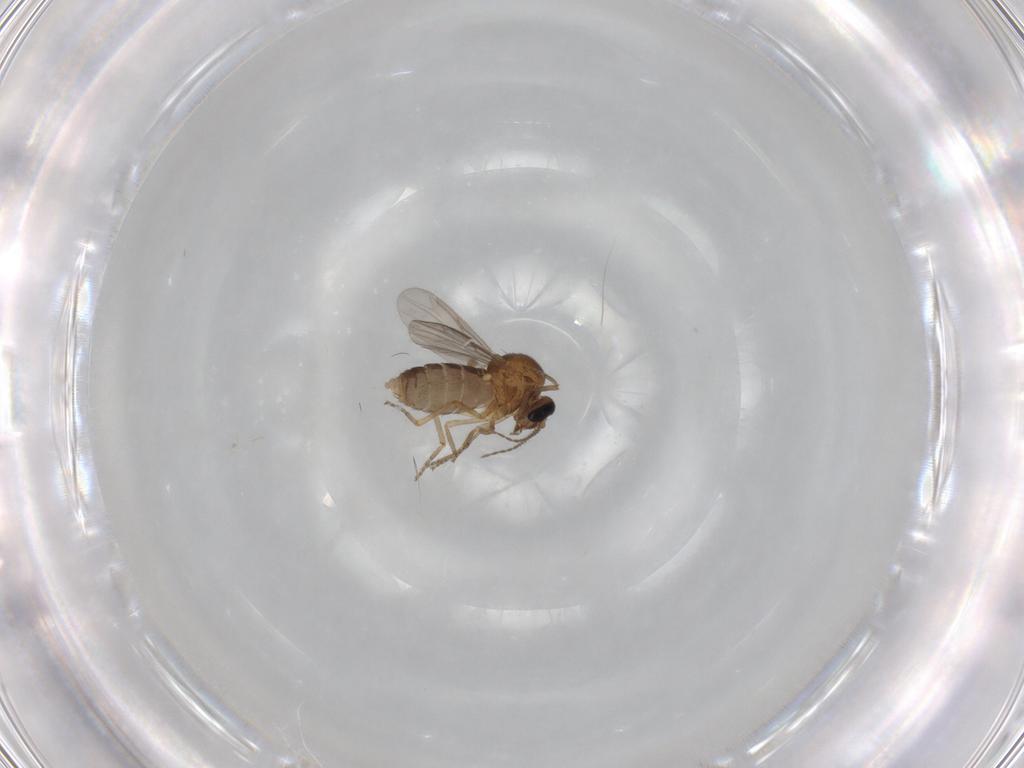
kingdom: Animalia
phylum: Arthropoda
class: Insecta
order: Diptera
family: Ceratopogonidae
